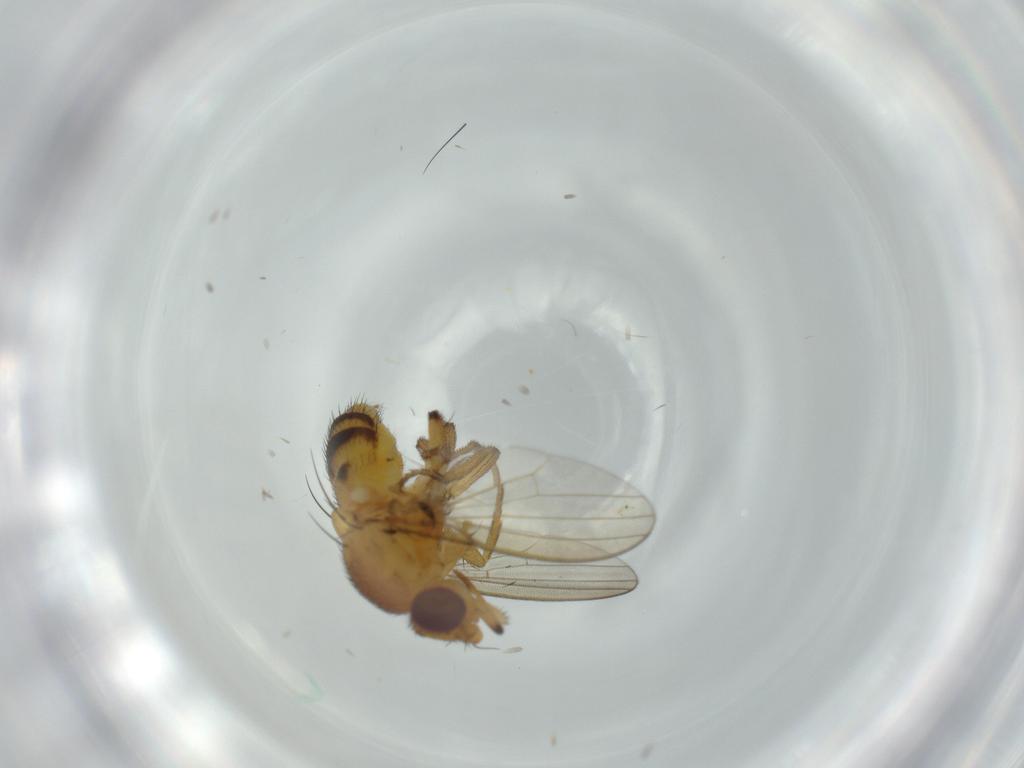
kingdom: Animalia
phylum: Arthropoda
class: Insecta
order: Diptera
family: Milichiidae
